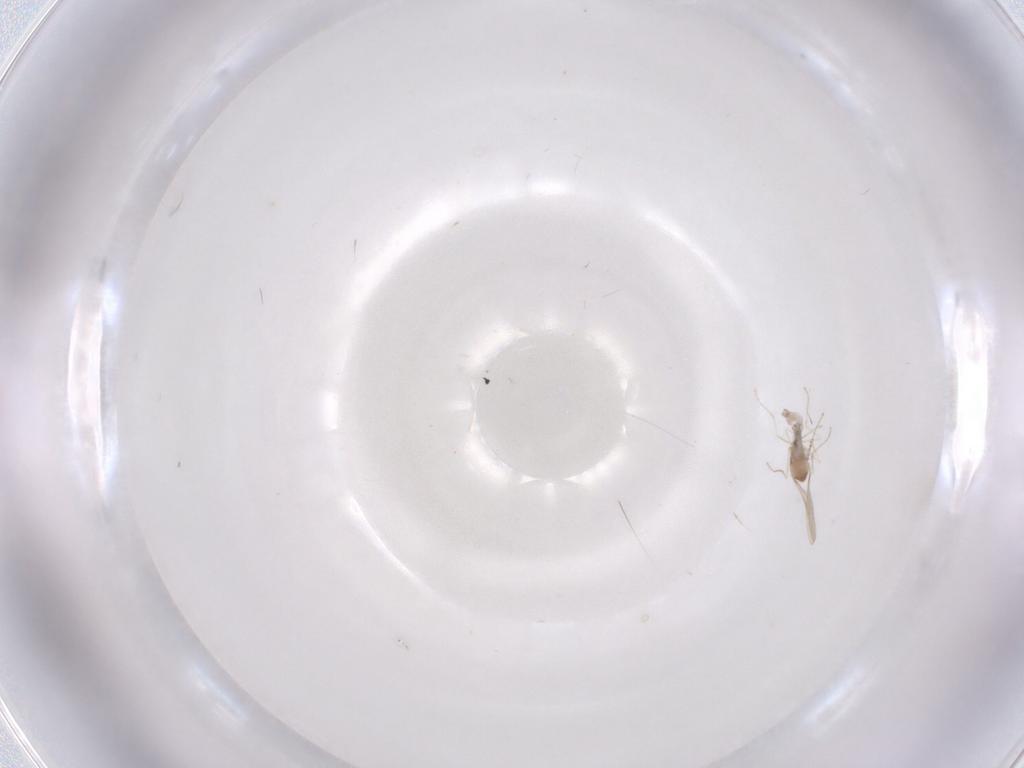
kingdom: Animalia
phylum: Arthropoda
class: Insecta
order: Diptera
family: Cecidomyiidae
